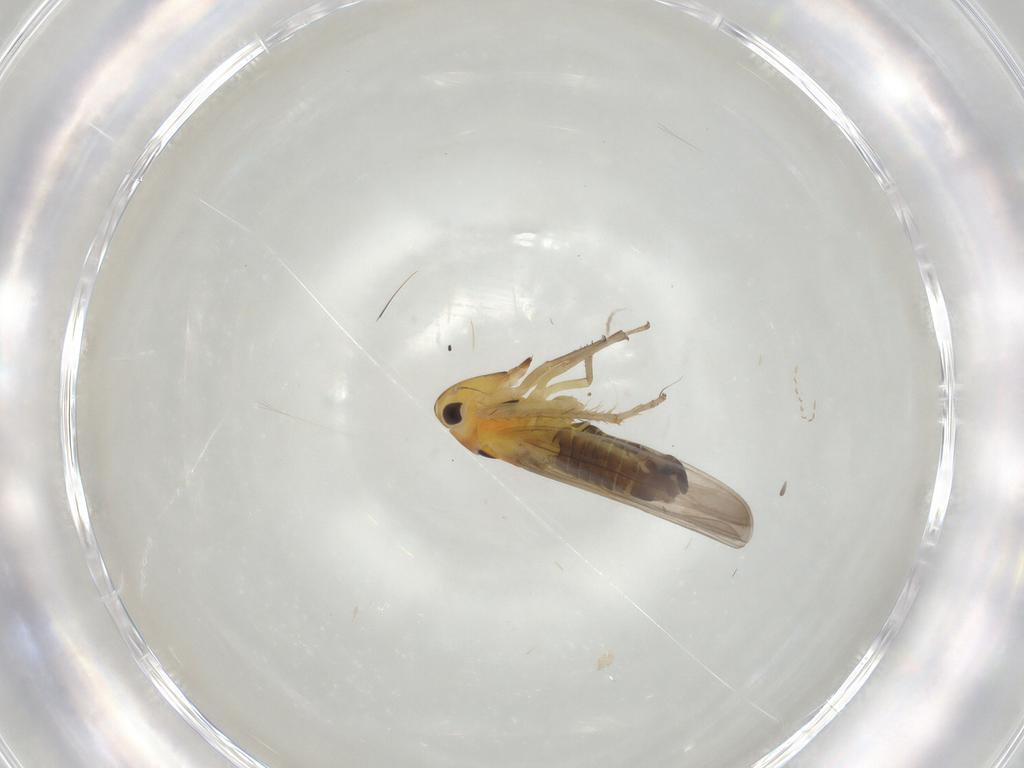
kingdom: Animalia
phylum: Arthropoda
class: Insecta
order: Hemiptera
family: Cicadellidae
